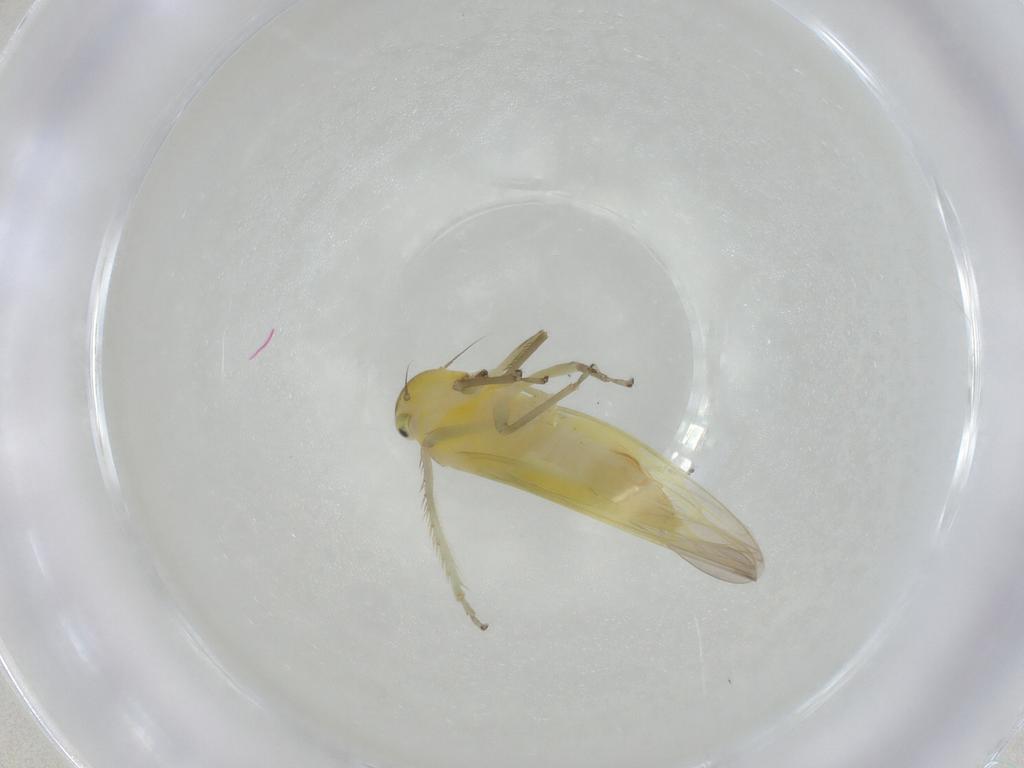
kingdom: Animalia
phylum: Arthropoda
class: Insecta
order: Hemiptera
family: Cicadellidae
